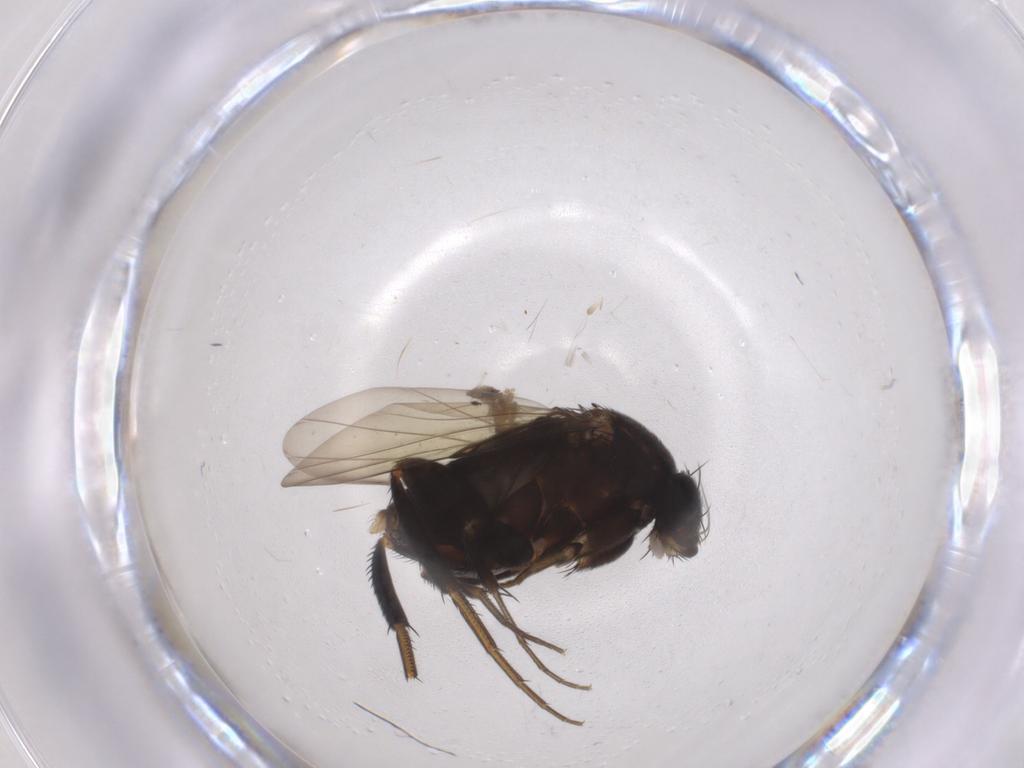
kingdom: Animalia
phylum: Arthropoda
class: Insecta
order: Diptera
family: Phoridae
